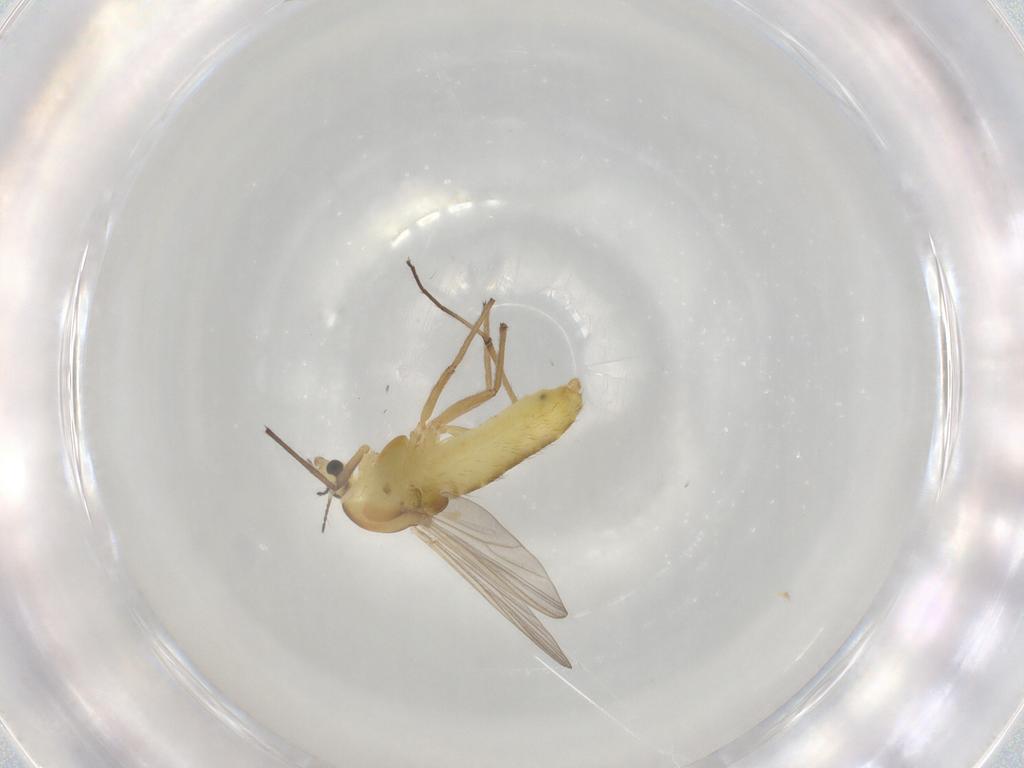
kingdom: Animalia
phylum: Arthropoda
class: Insecta
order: Diptera
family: Chironomidae
